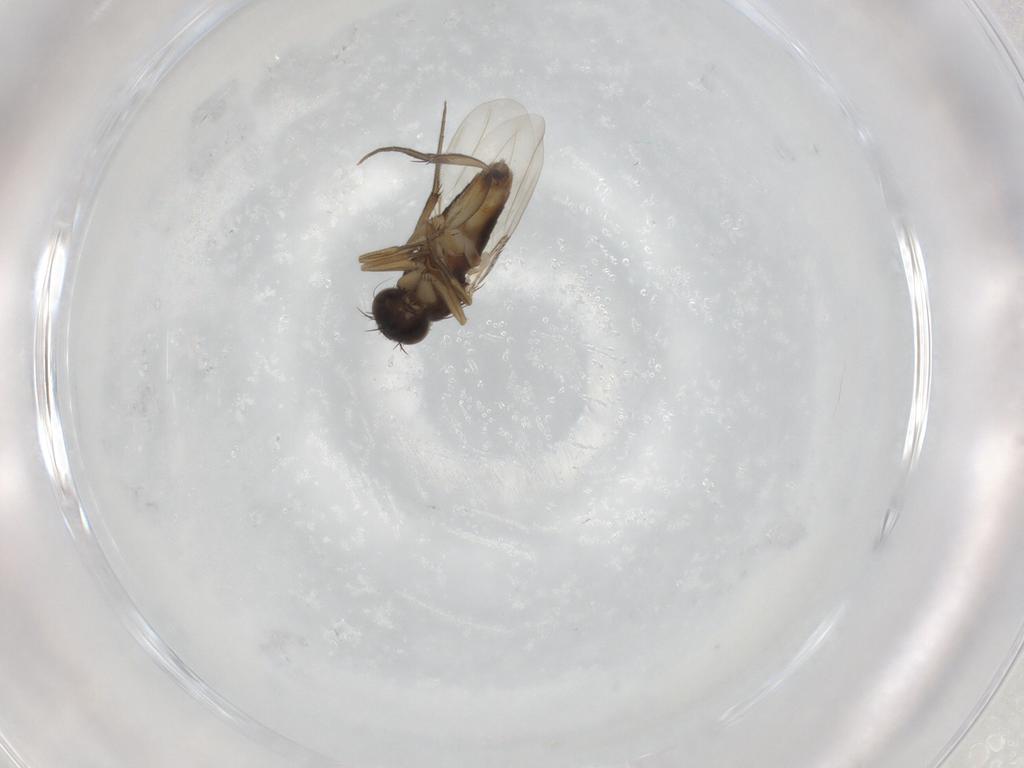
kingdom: Animalia
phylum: Arthropoda
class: Insecta
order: Diptera
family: Phoridae
